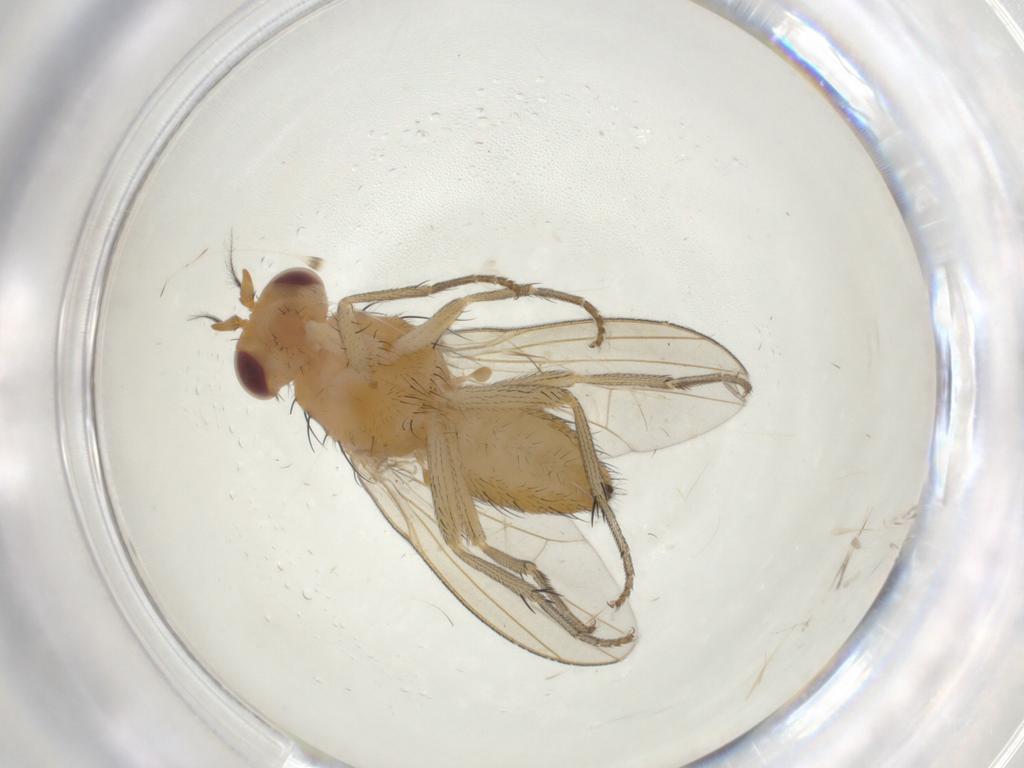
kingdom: Animalia
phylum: Arthropoda
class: Insecta
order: Diptera
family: Tabanidae
